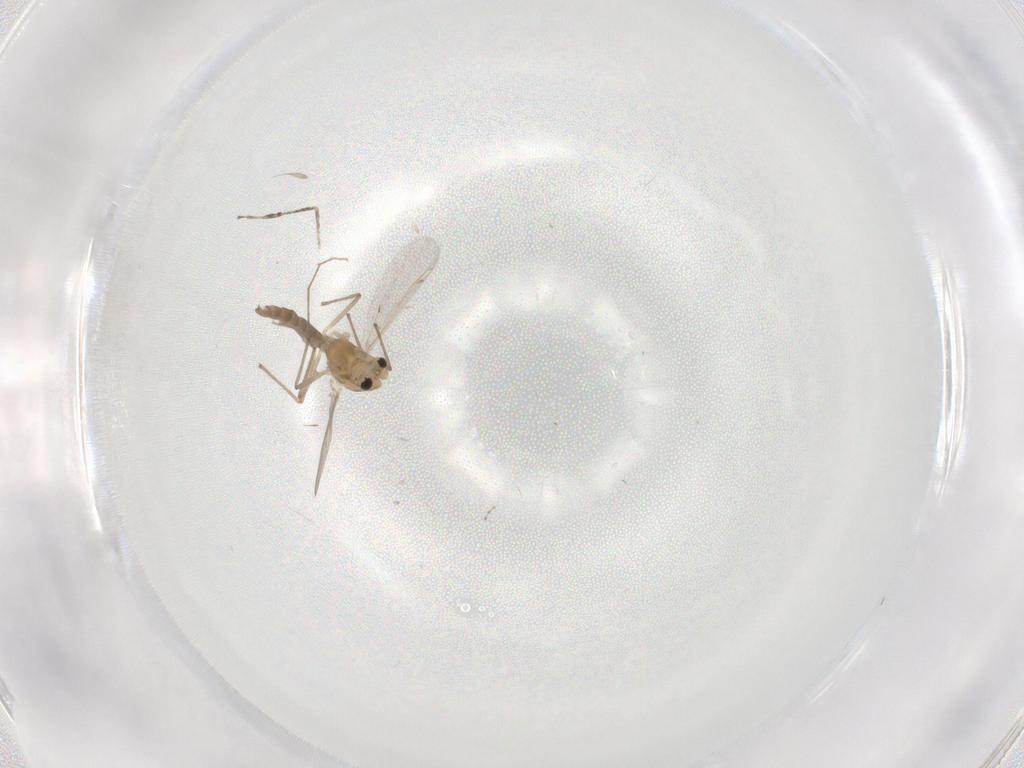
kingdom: Animalia
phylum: Arthropoda
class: Insecta
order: Diptera
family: Chironomidae
